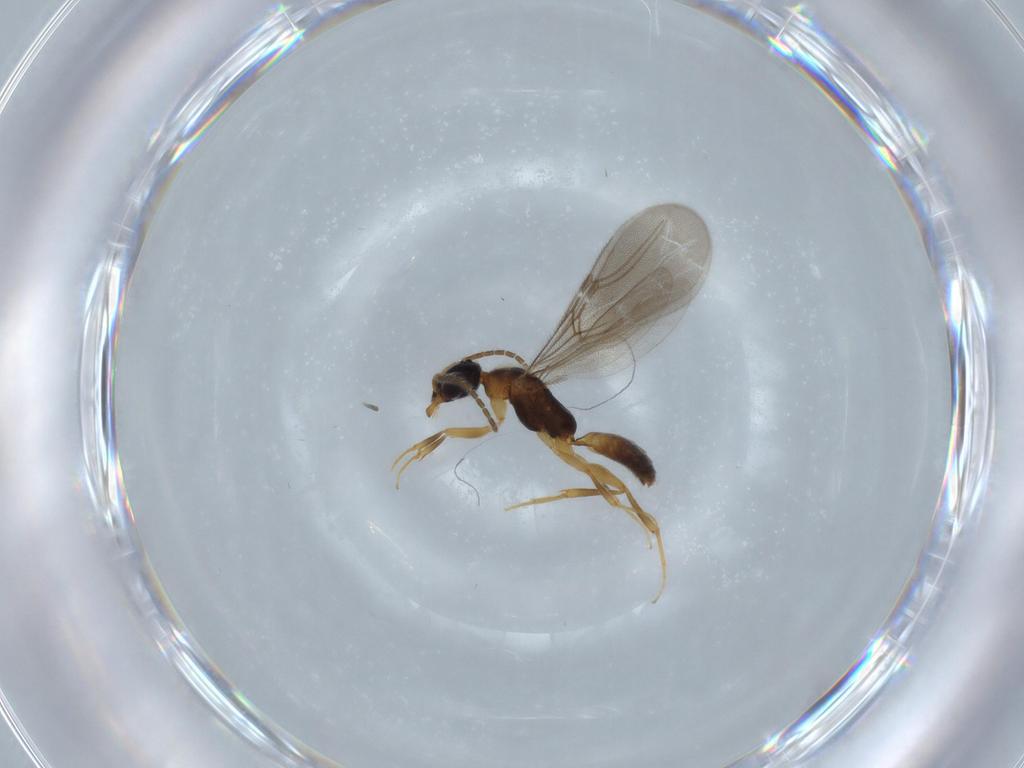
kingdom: Animalia
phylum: Arthropoda
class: Insecta
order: Hymenoptera
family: Bethylidae
